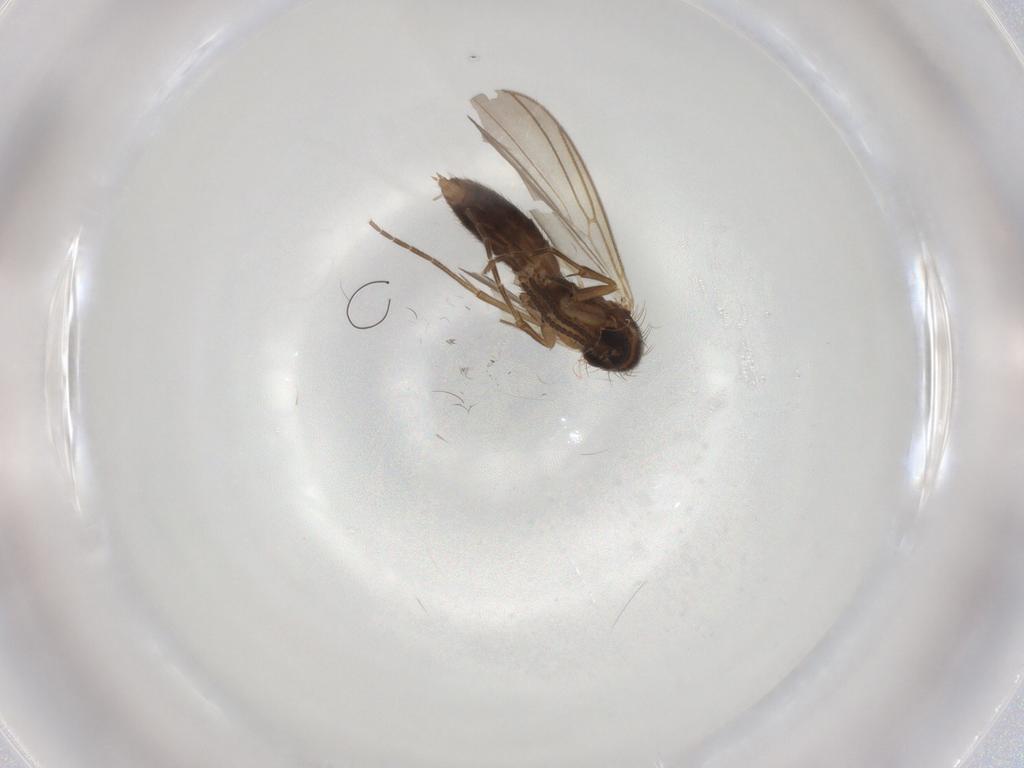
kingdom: Animalia
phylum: Arthropoda
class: Insecta
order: Diptera
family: Mycetophilidae
